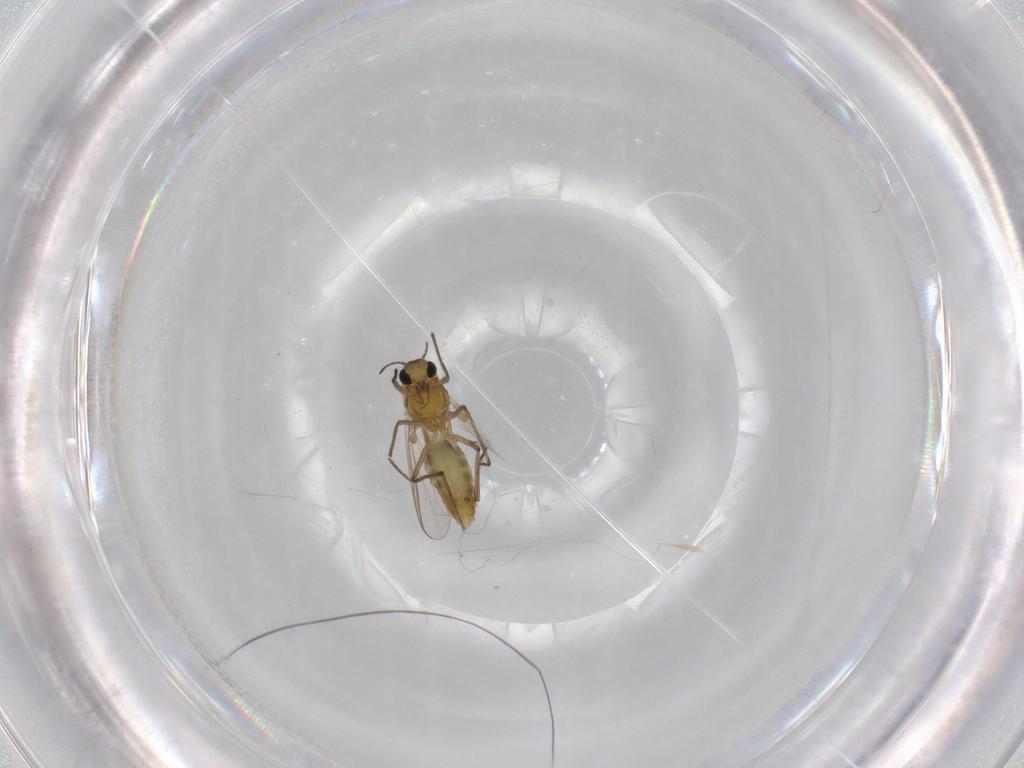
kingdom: Animalia
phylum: Arthropoda
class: Insecta
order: Diptera
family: Chironomidae
